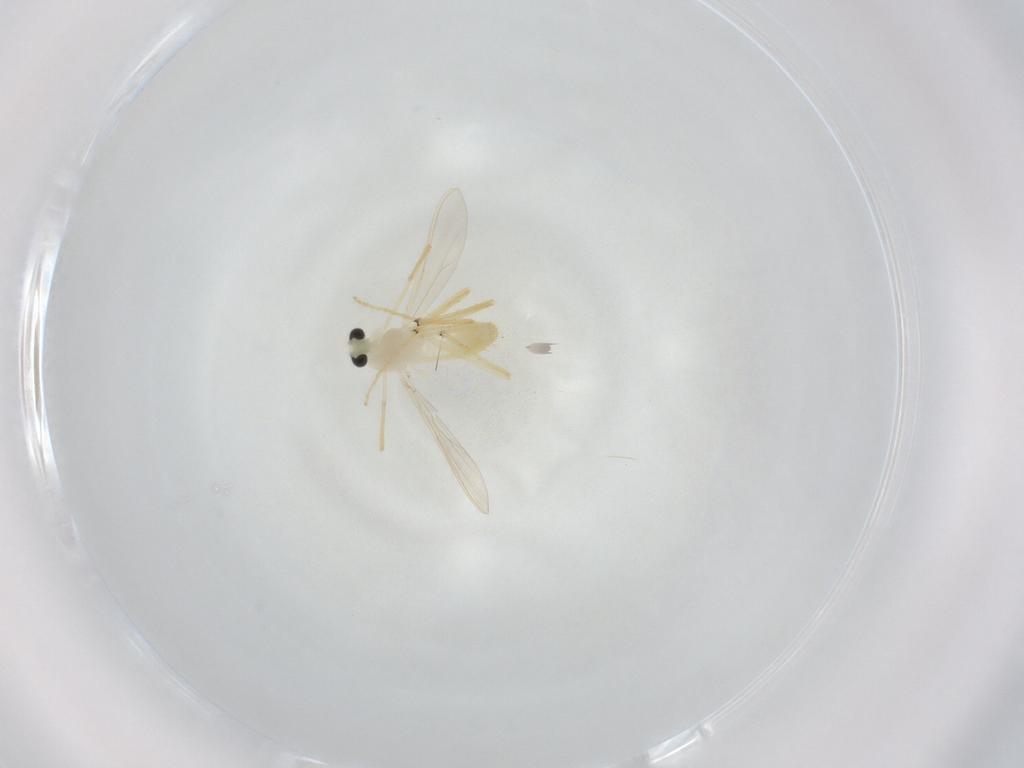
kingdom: Animalia
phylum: Arthropoda
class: Insecta
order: Diptera
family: Chironomidae
